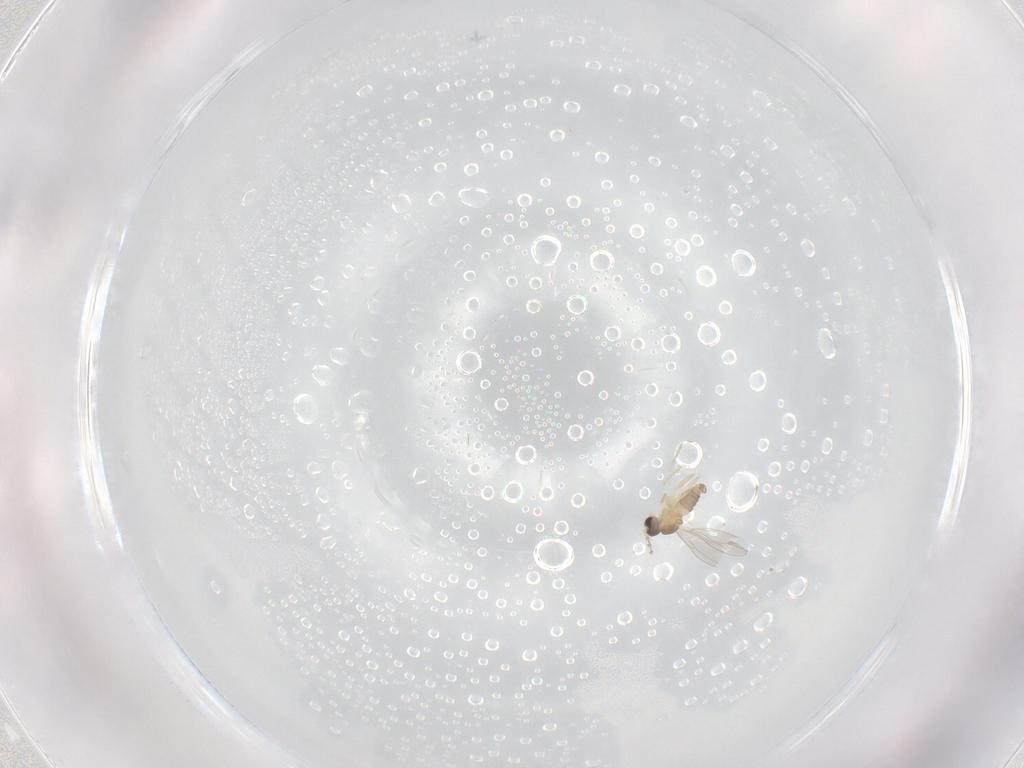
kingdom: Animalia
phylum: Arthropoda
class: Insecta
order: Diptera
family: Cecidomyiidae
